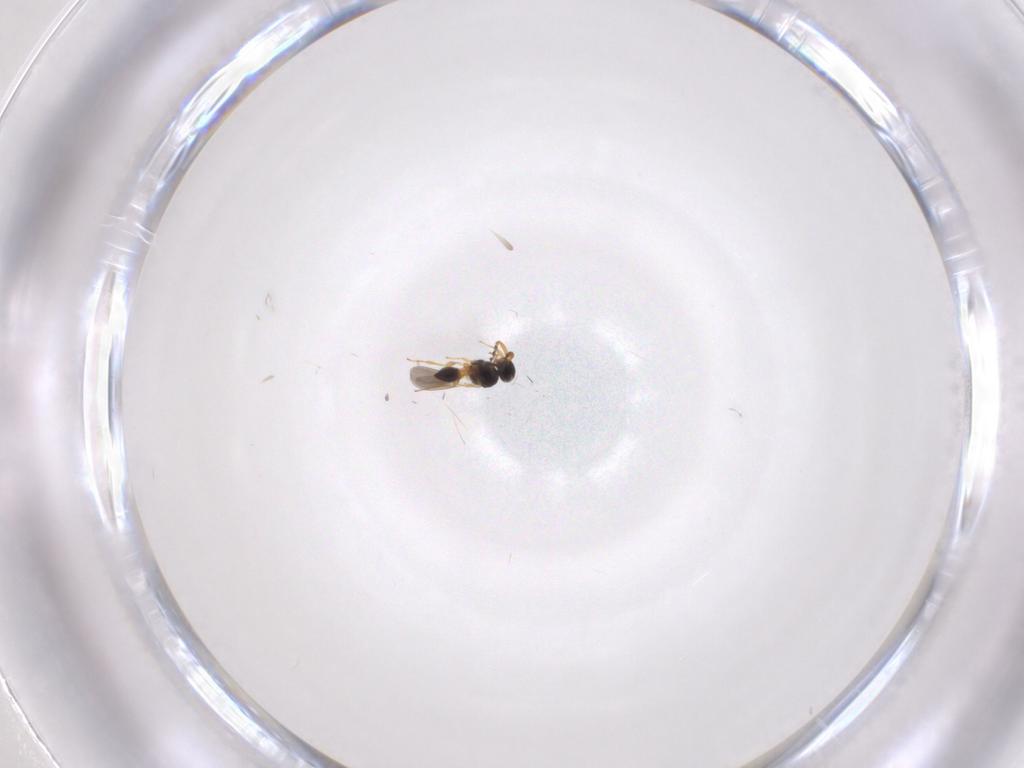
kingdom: Animalia
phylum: Arthropoda
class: Insecta
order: Hymenoptera
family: Platygastridae
